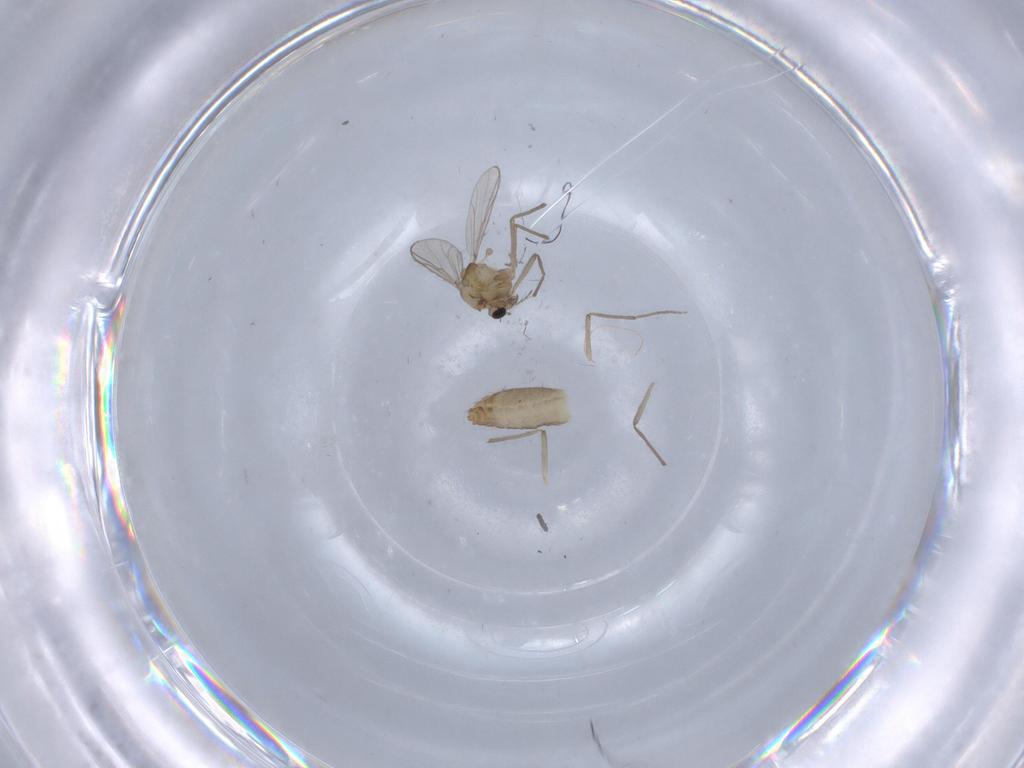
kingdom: Animalia
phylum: Arthropoda
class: Insecta
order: Diptera
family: Chironomidae
